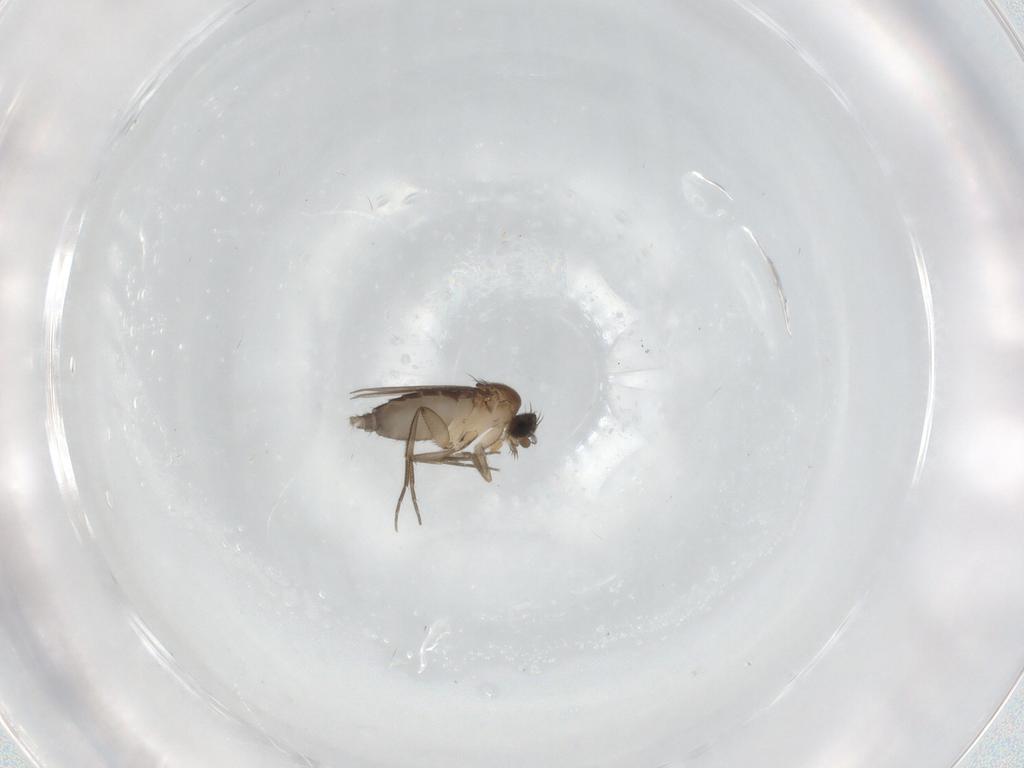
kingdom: Animalia
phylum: Arthropoda
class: Insecta
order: Diptera
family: Phoridae
